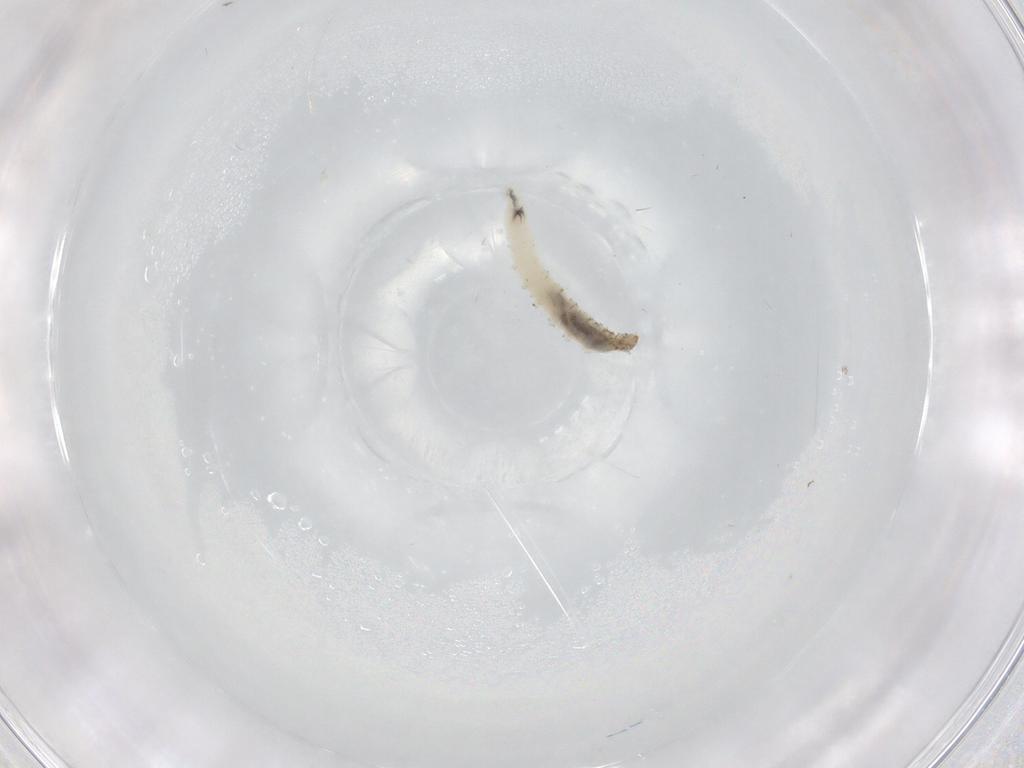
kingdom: Animalia
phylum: Arthropoda
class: Insecta
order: Diptera
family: Chironomidae
